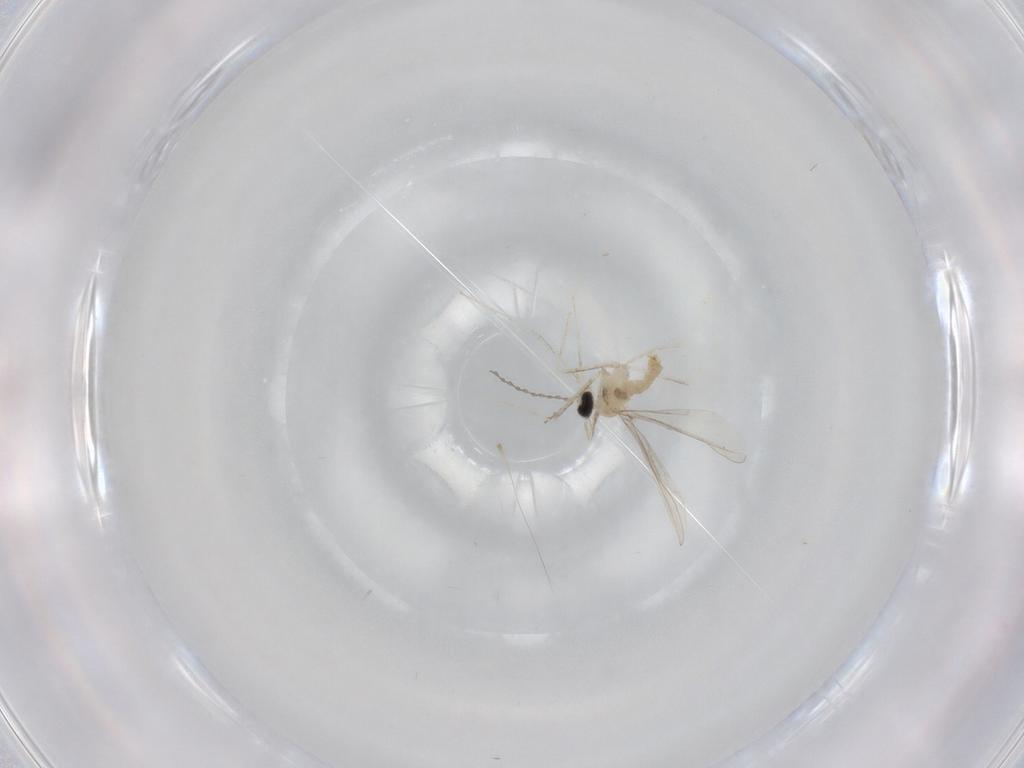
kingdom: Animalia
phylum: Arthropoda
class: Insecta
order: Diptera
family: Cecidomyiidae
